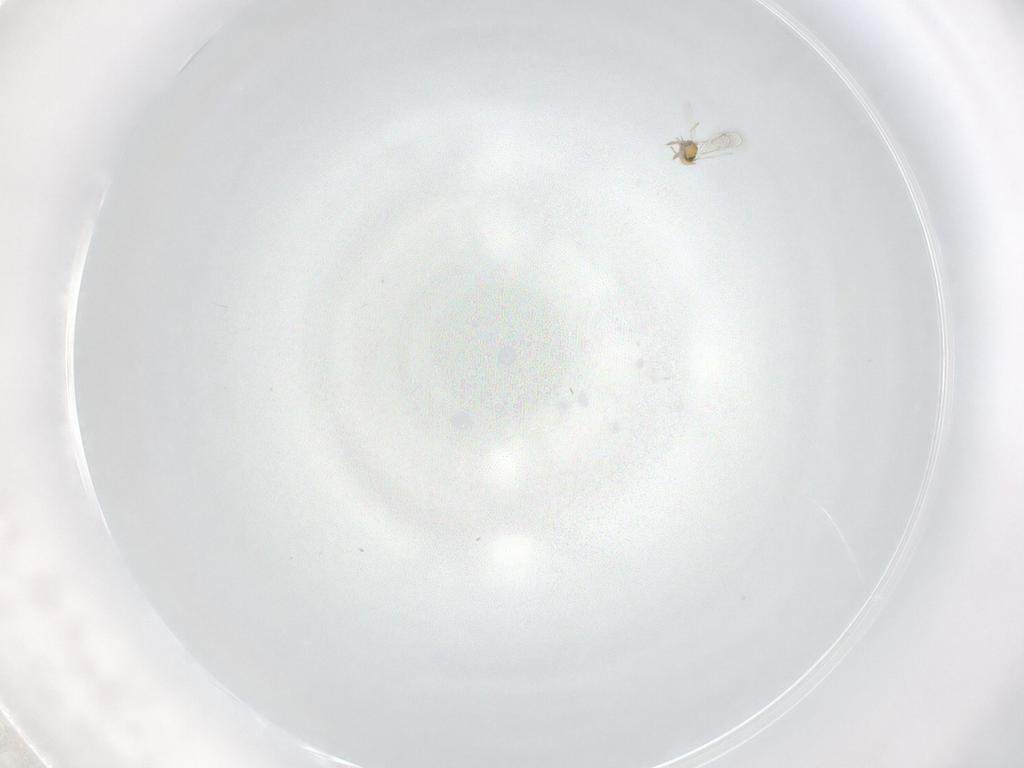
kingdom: Animalia
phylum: Arthropoda
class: Insecta
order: Hymenoptera
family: Eulophidae
